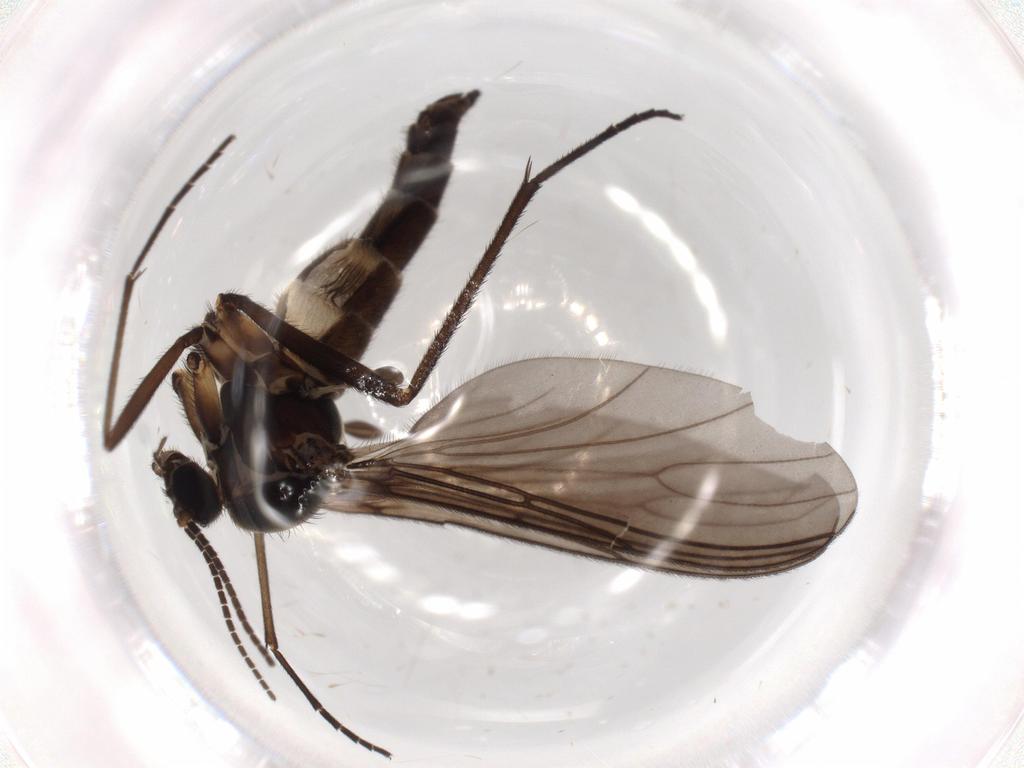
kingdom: Animalia
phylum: Arthropoda
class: Insecta
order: Diptera
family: Sciaridae
